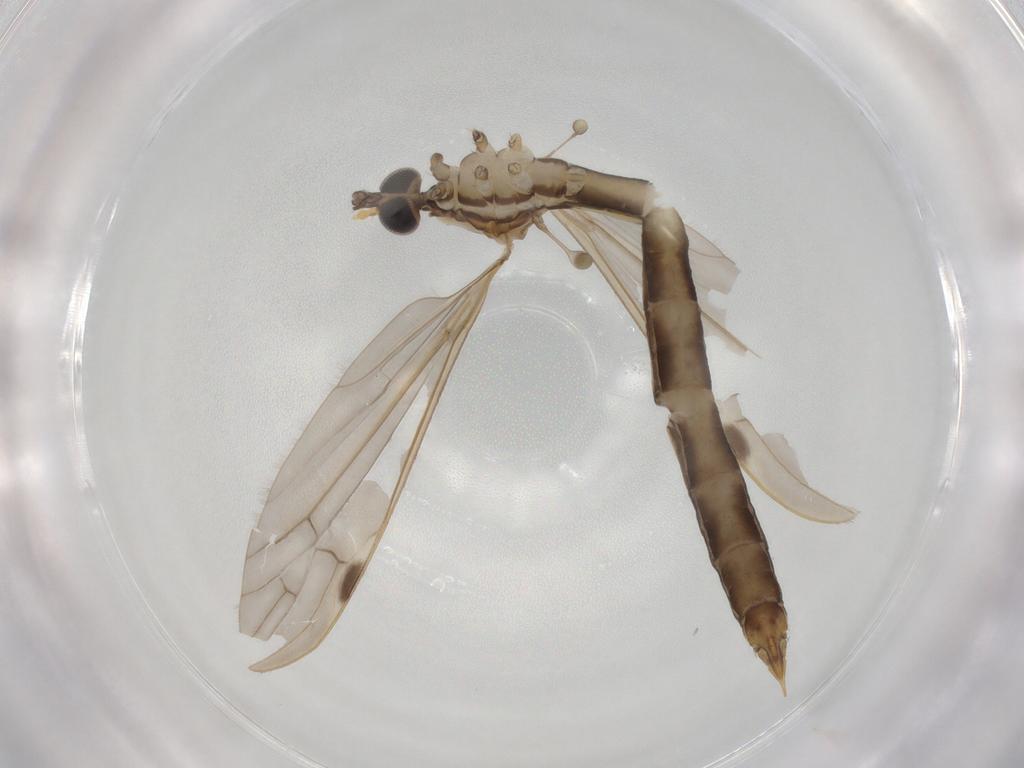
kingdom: Animalia
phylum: Arthropoda
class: Insecta
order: Diptera
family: Limoniidae
